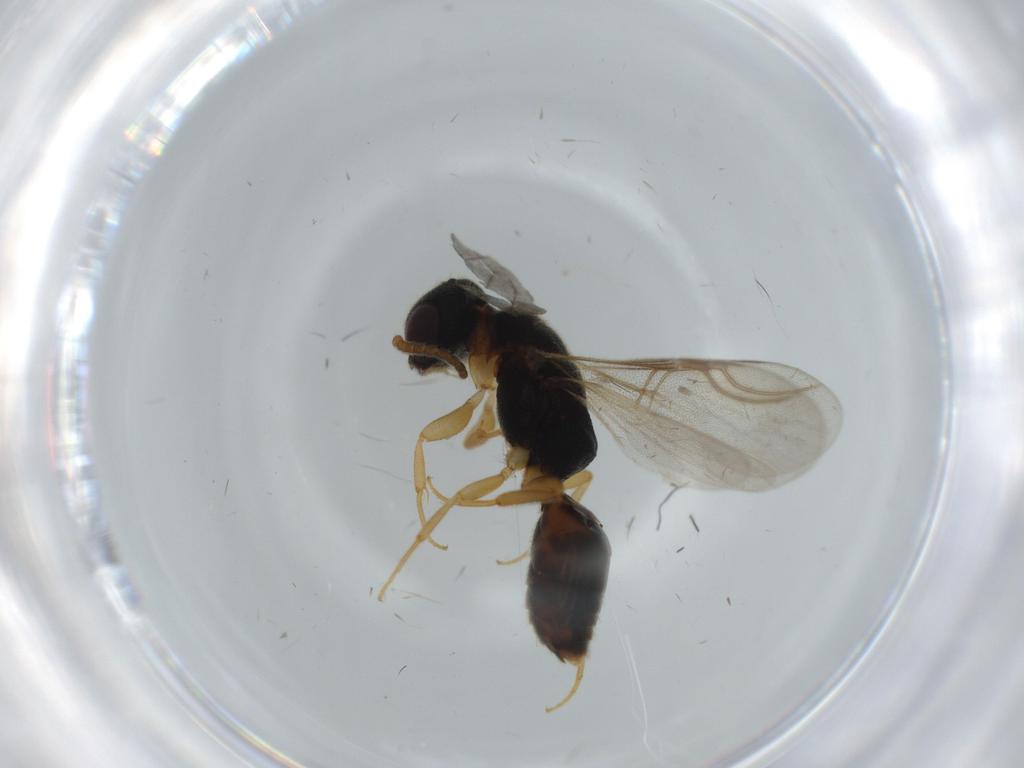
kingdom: Animalia
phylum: Arthropoda
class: Insecta
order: Hymenoptera
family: Bethylidae
